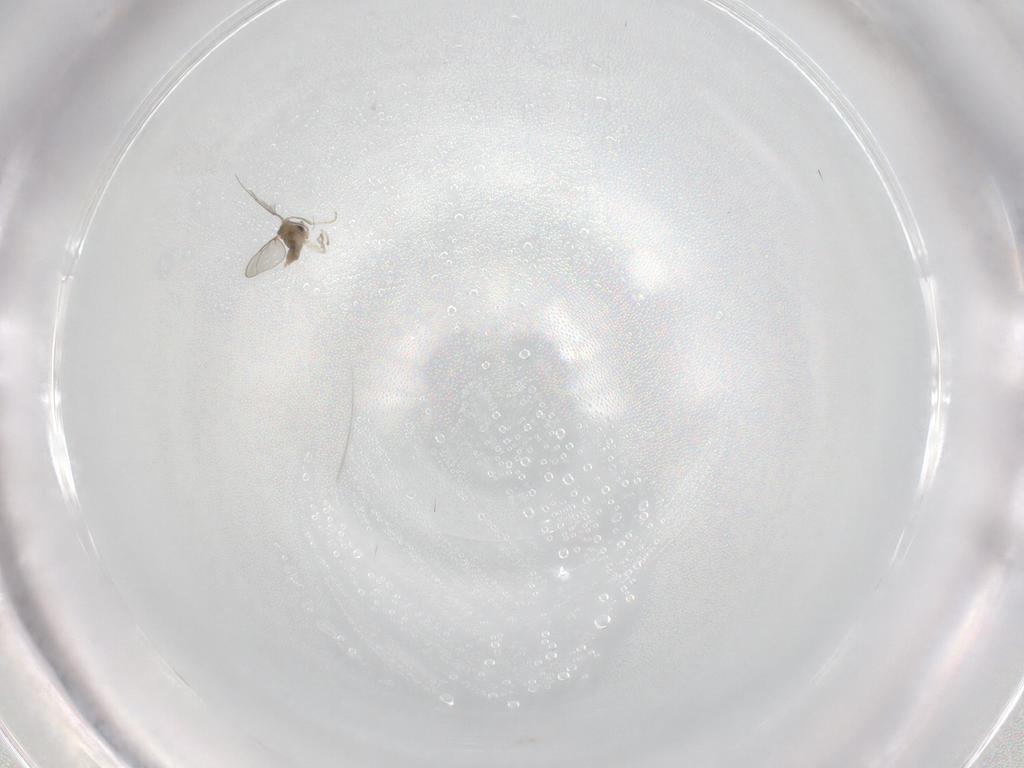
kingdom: Animalia
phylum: Arthropoda
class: Insecta
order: Diptera
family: Cecidomyiidae
